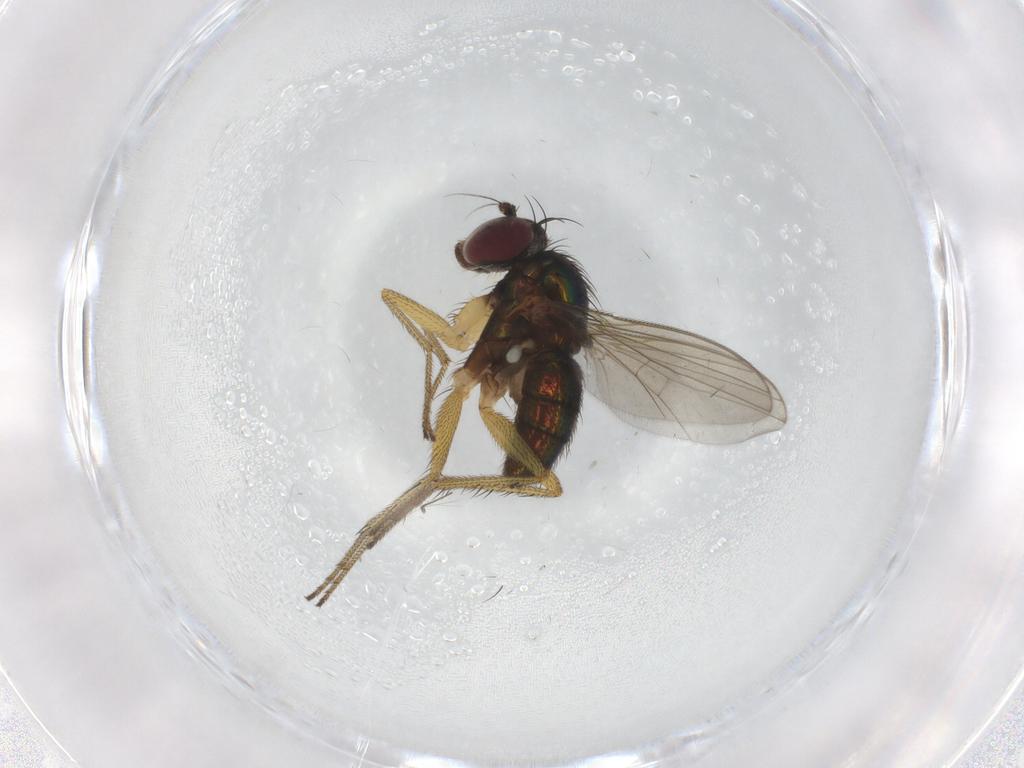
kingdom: Animalia
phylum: Arthropoda
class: Insecta
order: Diptera
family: Chironomidae
